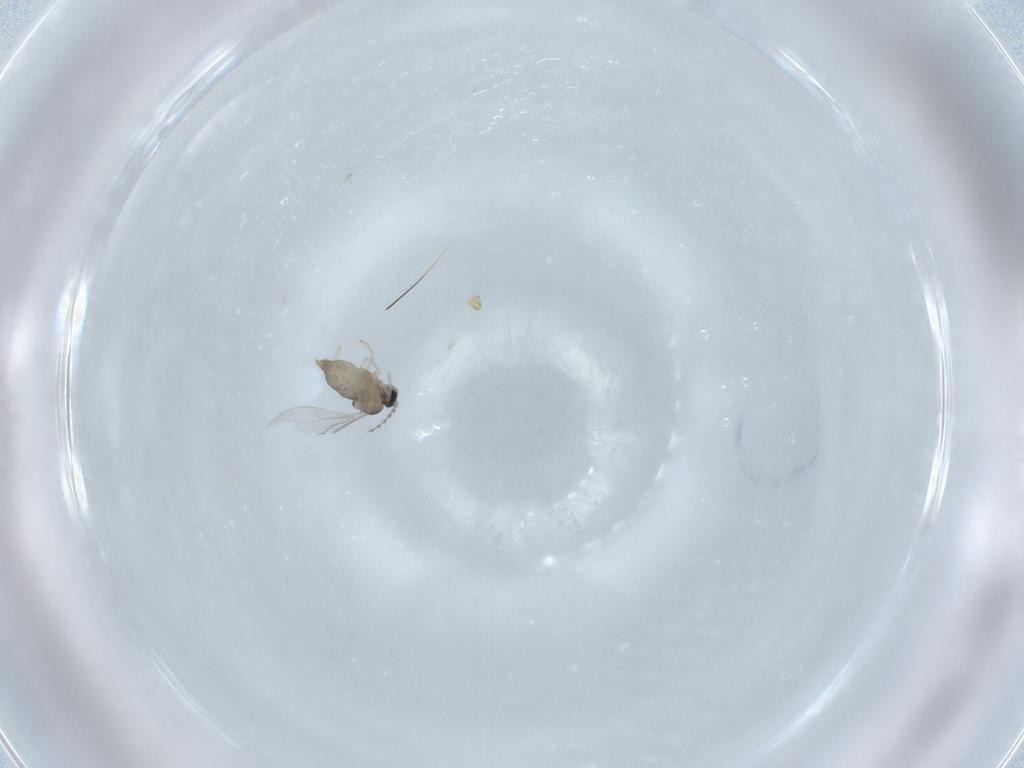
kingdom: Animalia
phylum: Arthropoda
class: Insecta
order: Diptera
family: Cecidomyiidae
